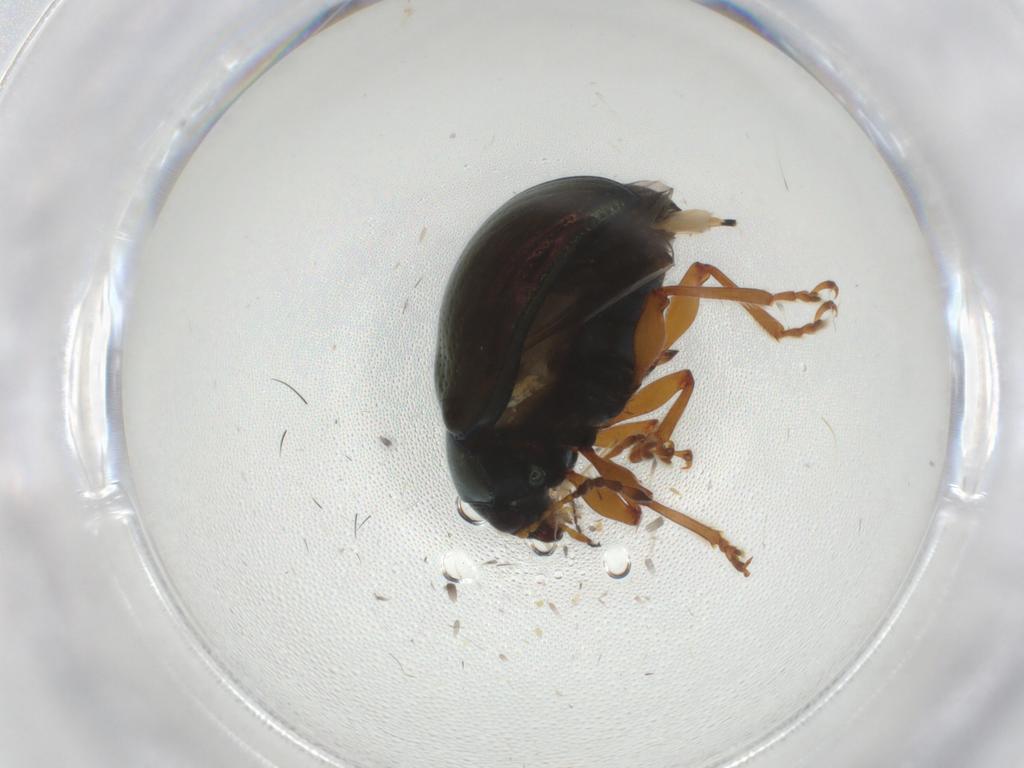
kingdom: Animalia
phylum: Arthropoda
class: Insecta
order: Coleoptera
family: Chrysomelidae
